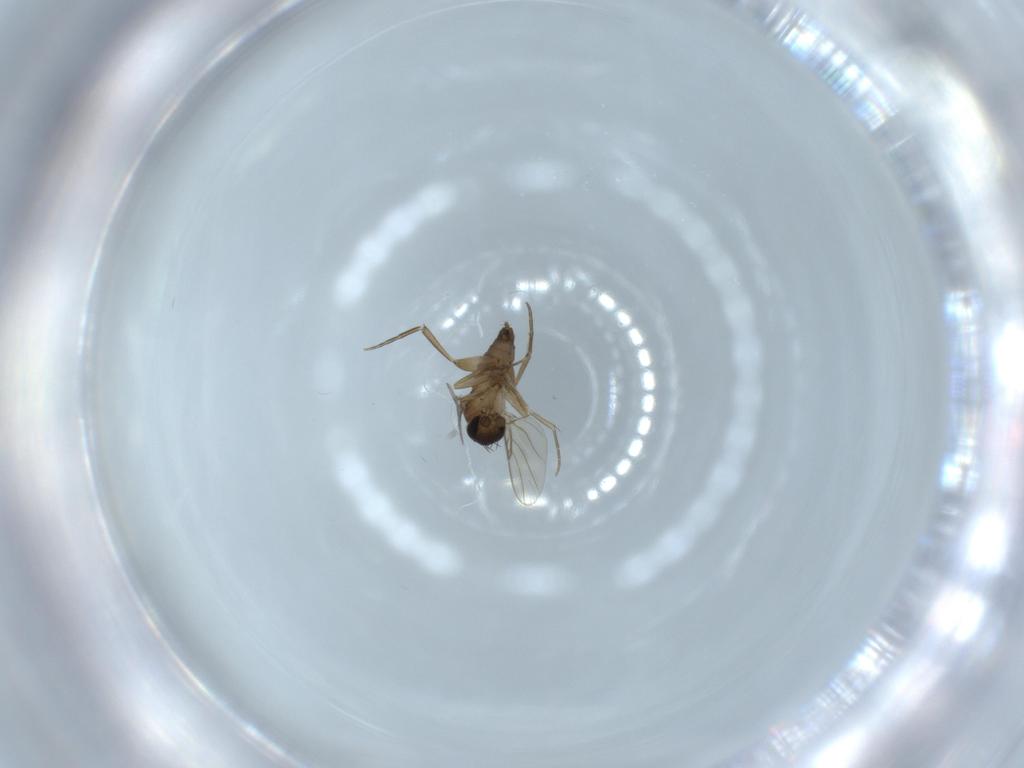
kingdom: Animalia
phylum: Arthropoda
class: Insecta
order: Diptera
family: Phoridae
